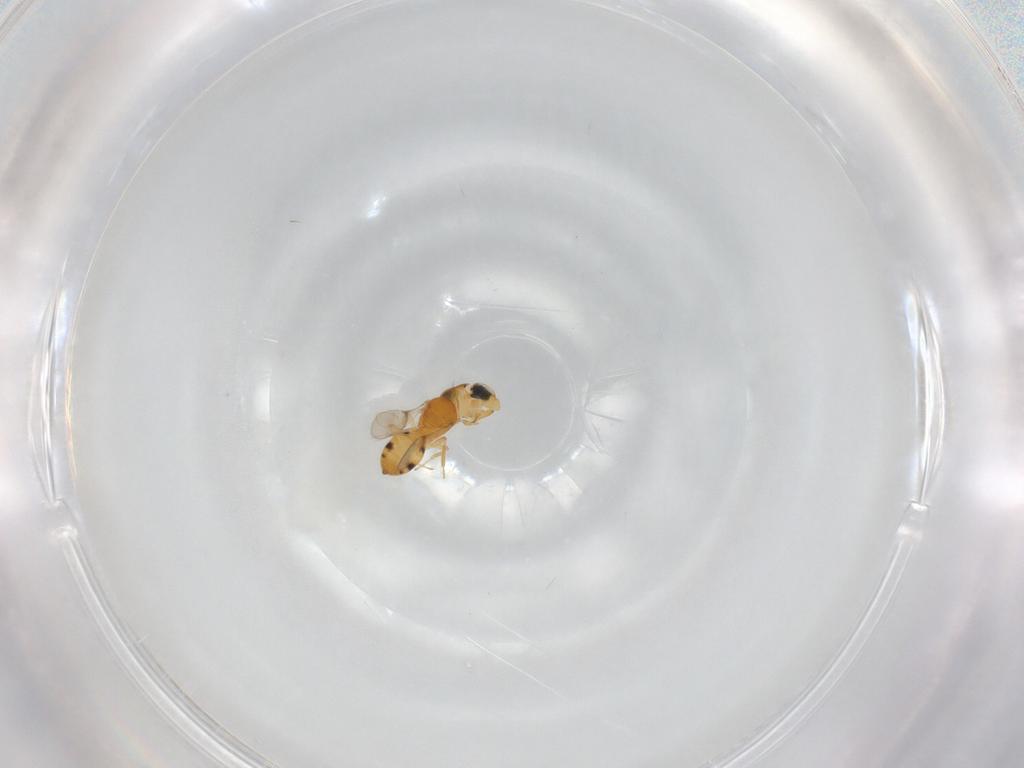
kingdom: Animalia
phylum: Arthropoda
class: Insecta
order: Hymenoptera
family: Scelionidae
